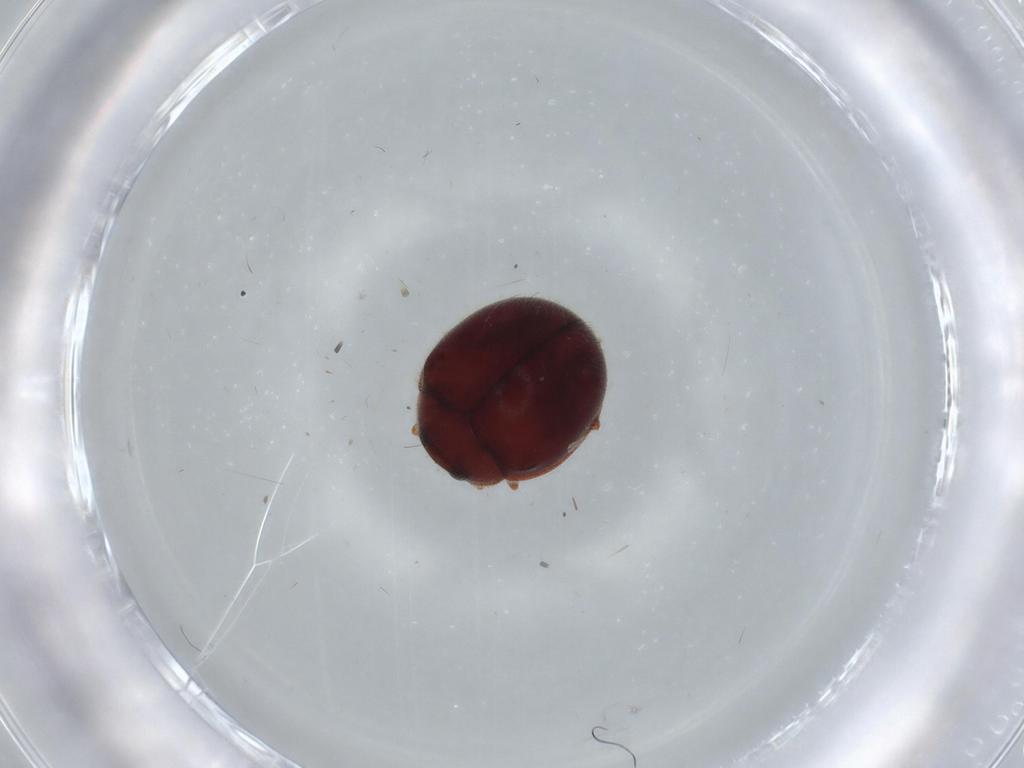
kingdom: Animalia
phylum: Arthropoda
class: Insecta
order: Coleoptera
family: Coccinellidae
